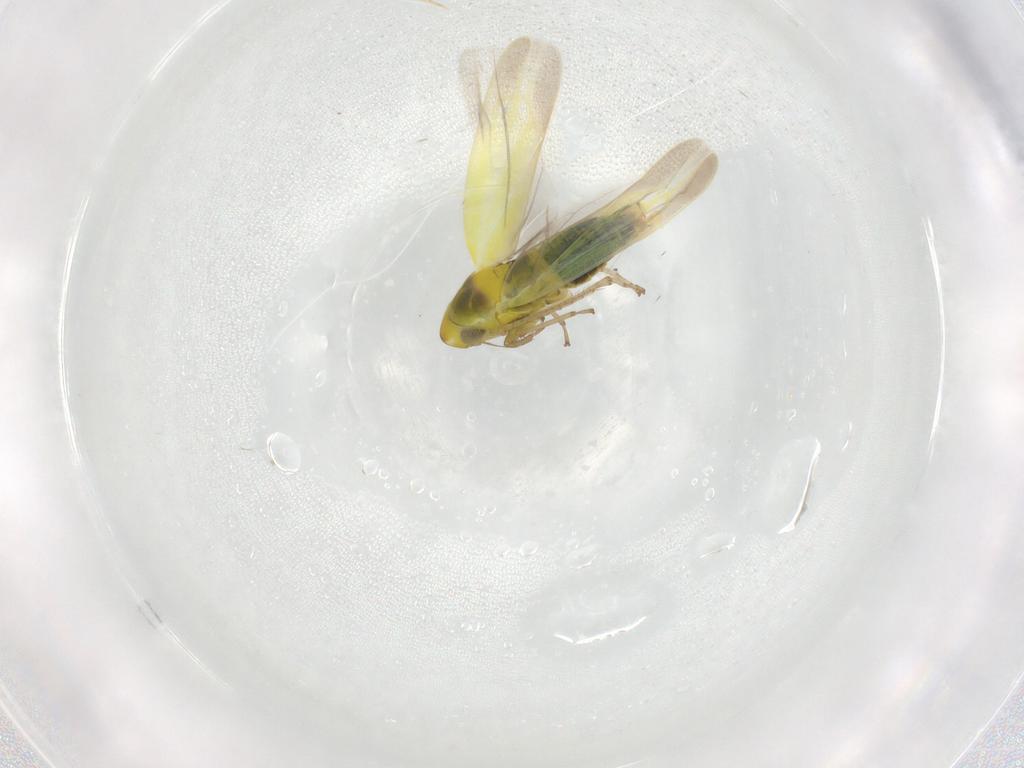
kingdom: Animalia
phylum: Arthropoda
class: Insecta
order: Hemiptera
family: Cicadellidae
